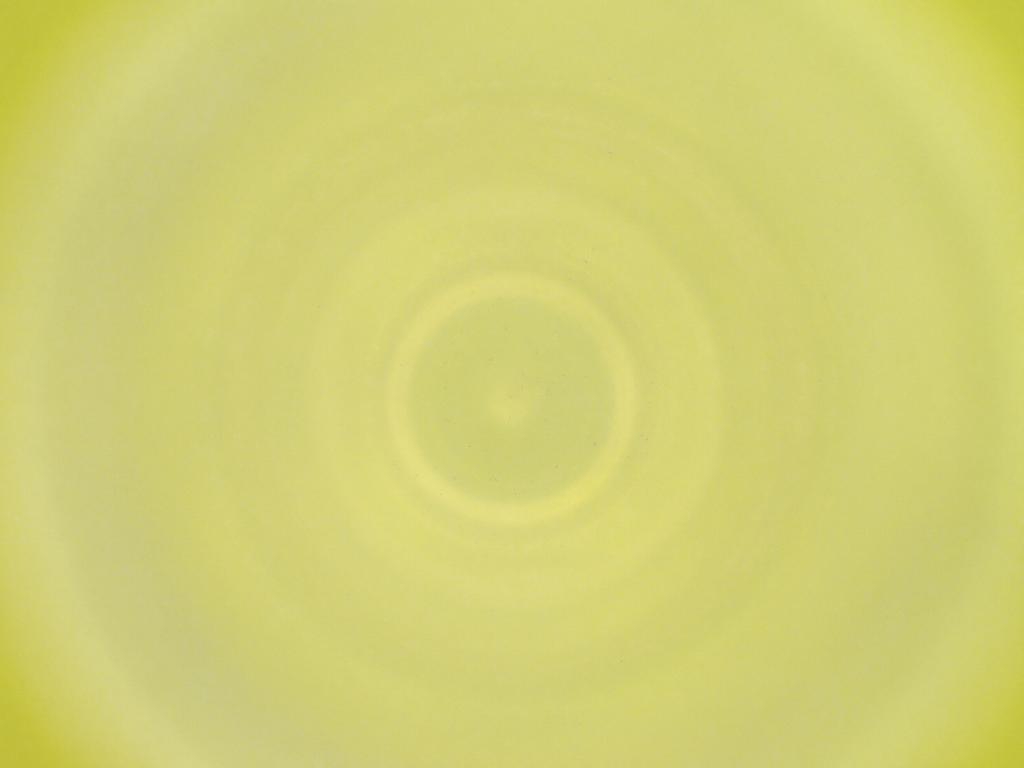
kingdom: Animalia
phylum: Arthropoda
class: Insecta
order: Diptera
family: Cecidomyiidae
